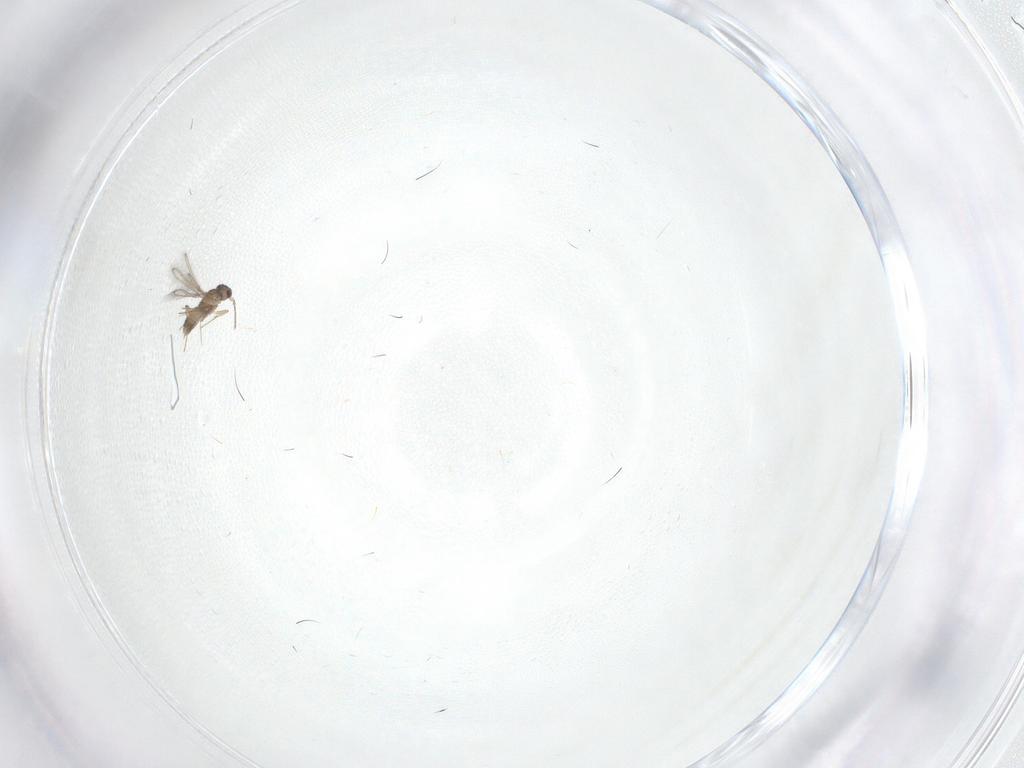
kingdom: Animalia
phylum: Arthropoda
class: Insecta
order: Hymenoptera
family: Mymaridae
